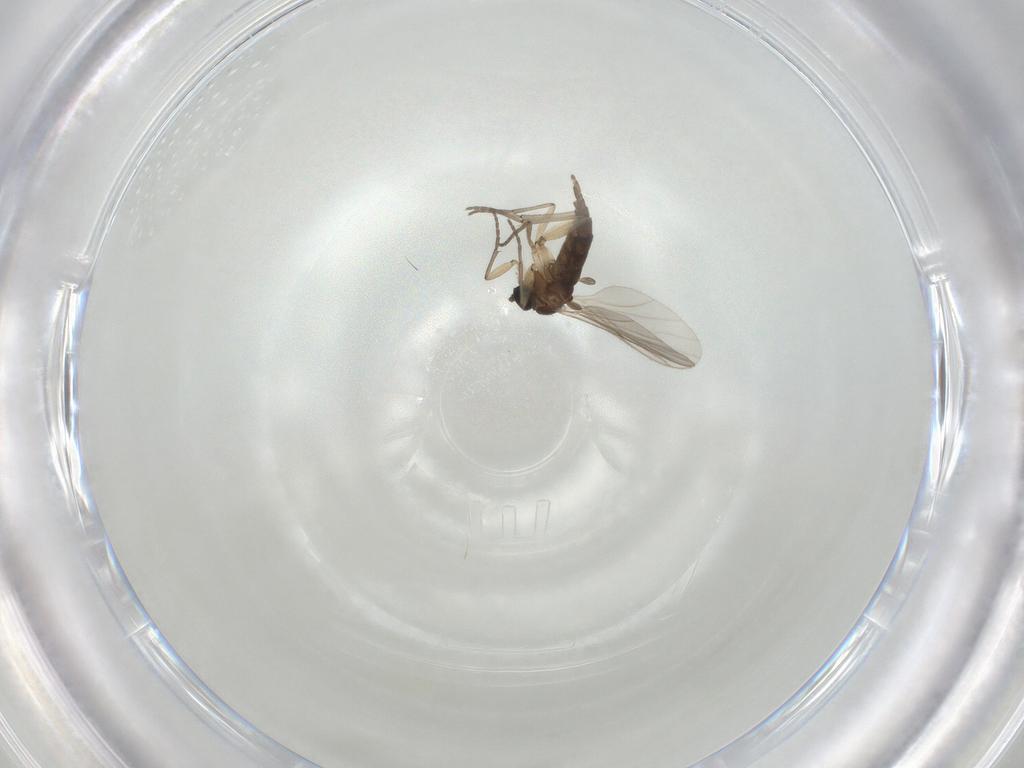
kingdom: Animalia
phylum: Arthropoda
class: Insecta
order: Diptera
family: Phoridae
